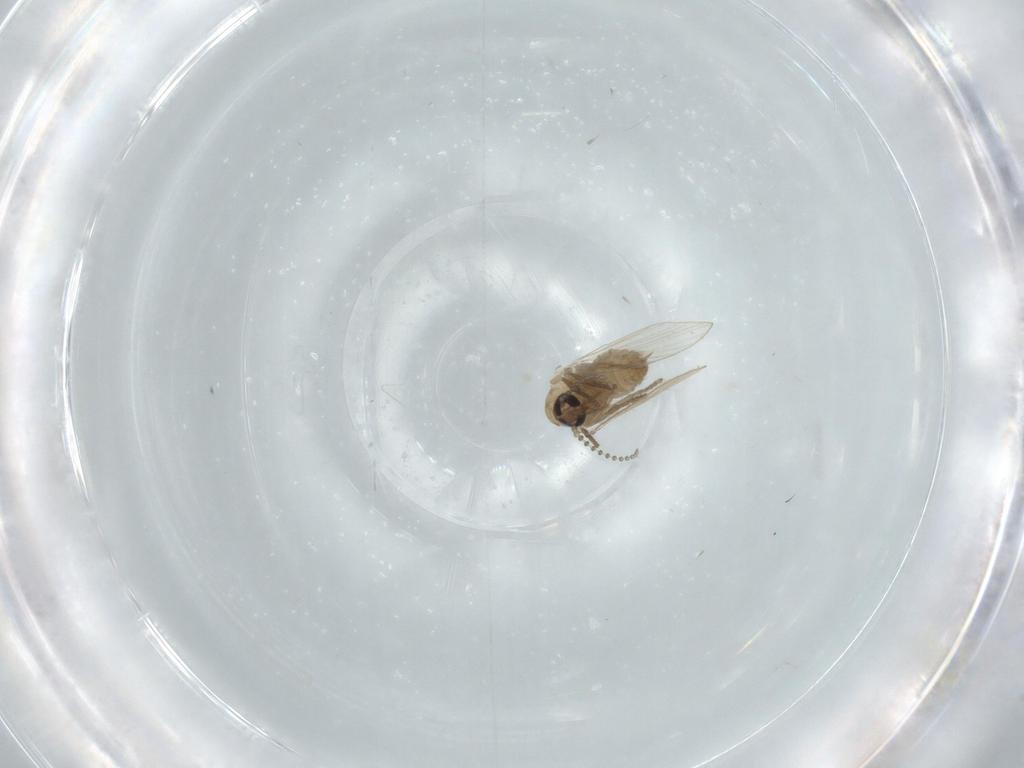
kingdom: Animalia
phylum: Arthropoda
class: Insecta
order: Diptera
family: Psychodidae
